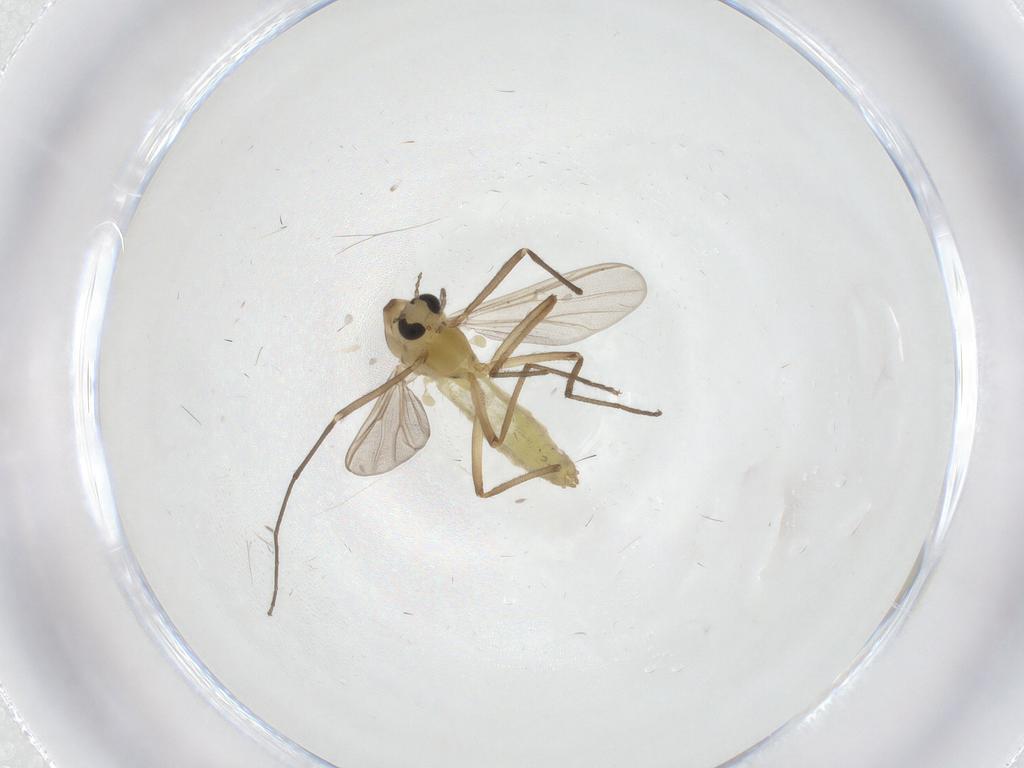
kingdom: Animalia
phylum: Arthropoda
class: Insecta
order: Diptera
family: Chironomidae
